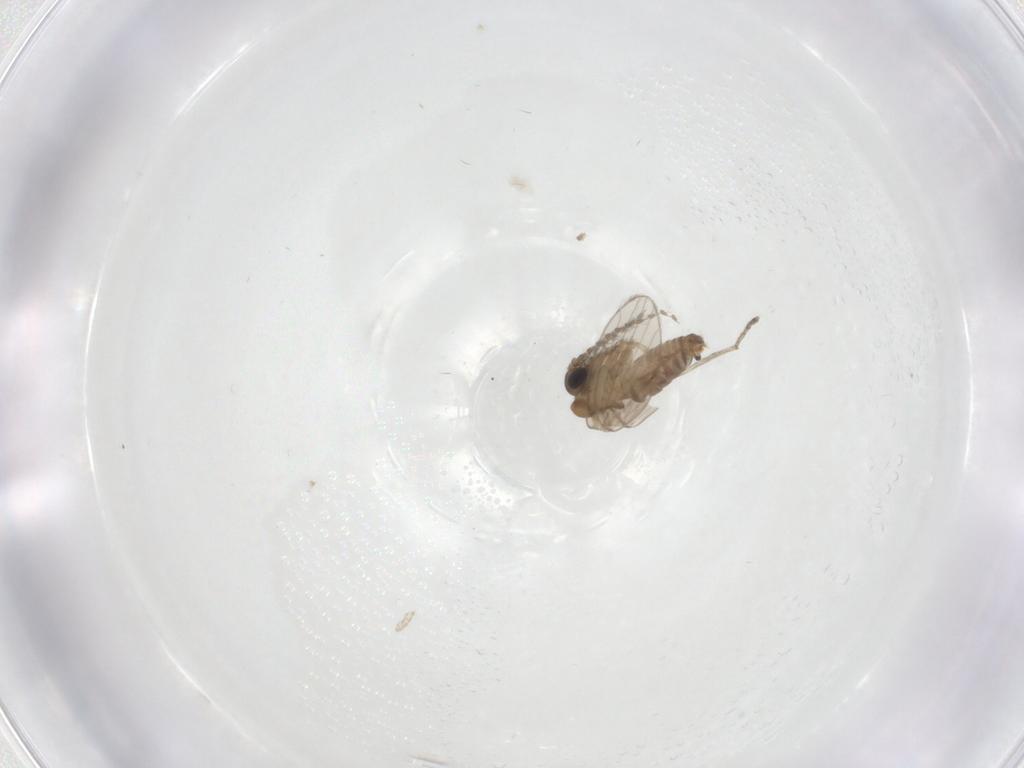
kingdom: Animalia
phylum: Arthropoda
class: Insecta
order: Diptera
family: Psychodidae
